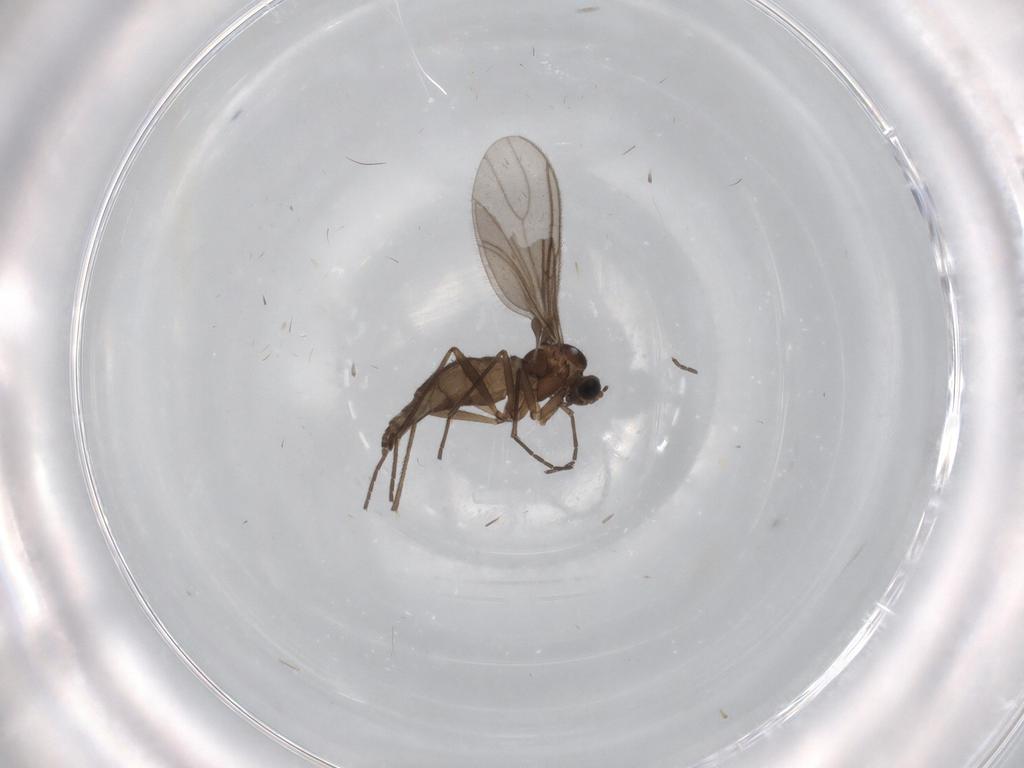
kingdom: Animalia
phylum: Arthropoda
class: Insecta
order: Diptera
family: Sciaridae
